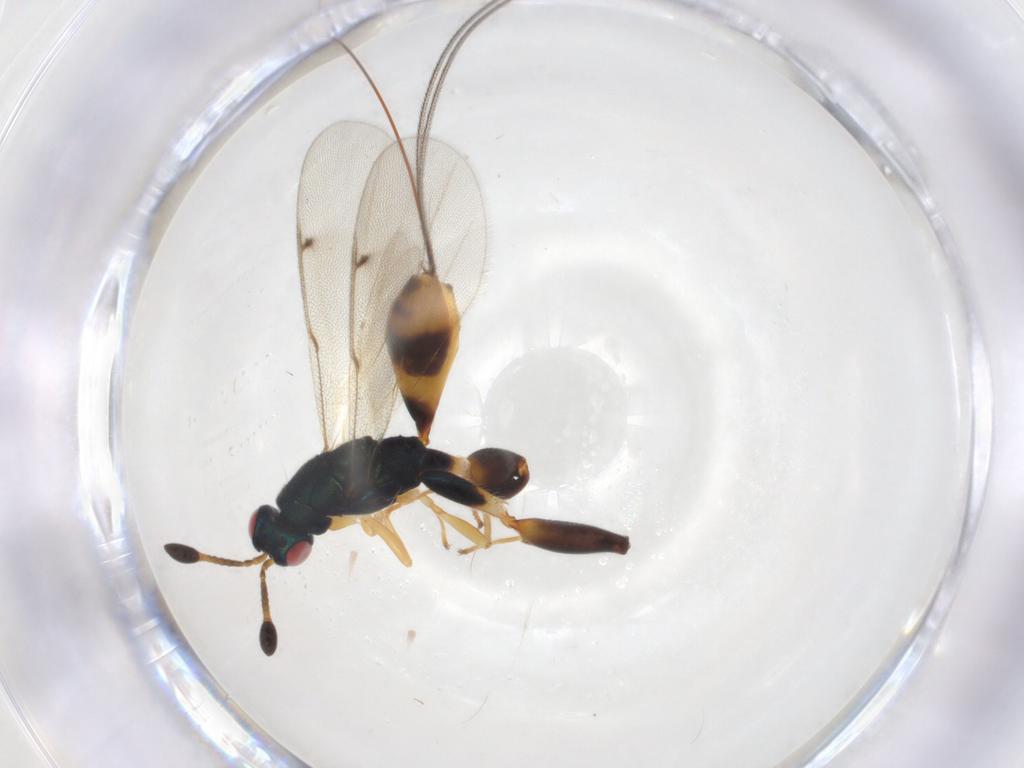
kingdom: Animalia
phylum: Arthropoda
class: Insecta
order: Hymenoptera
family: Torymidae
